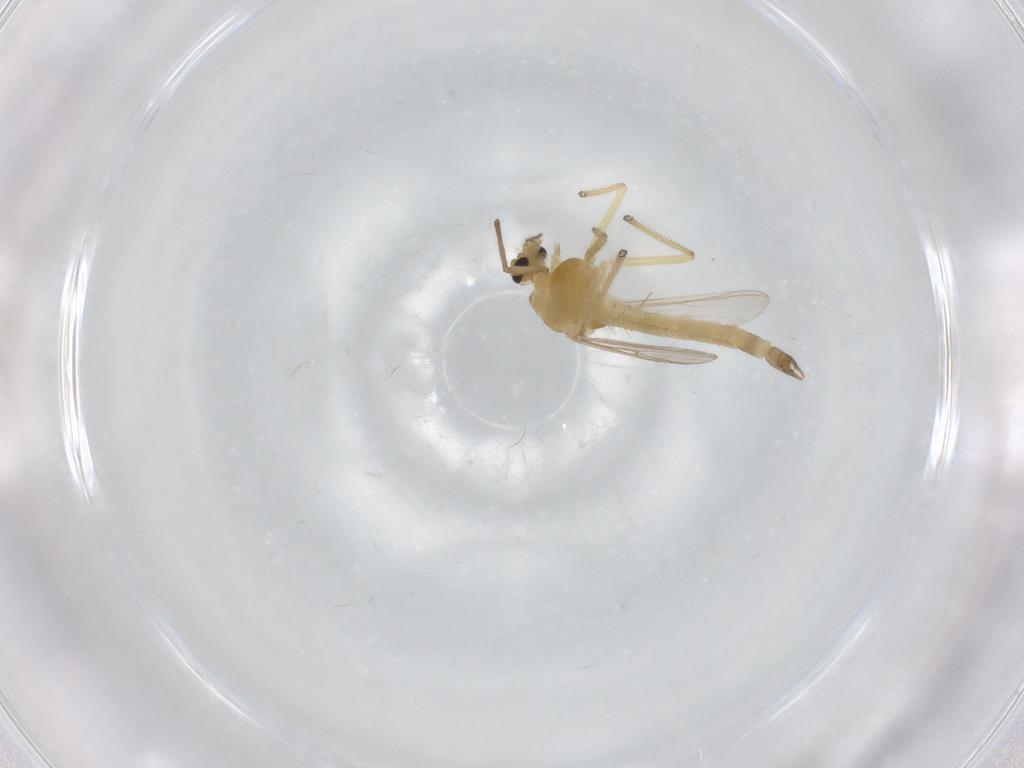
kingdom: Animalia
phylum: Arthropoda
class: Insecta
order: Diptera
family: Chironomidae
